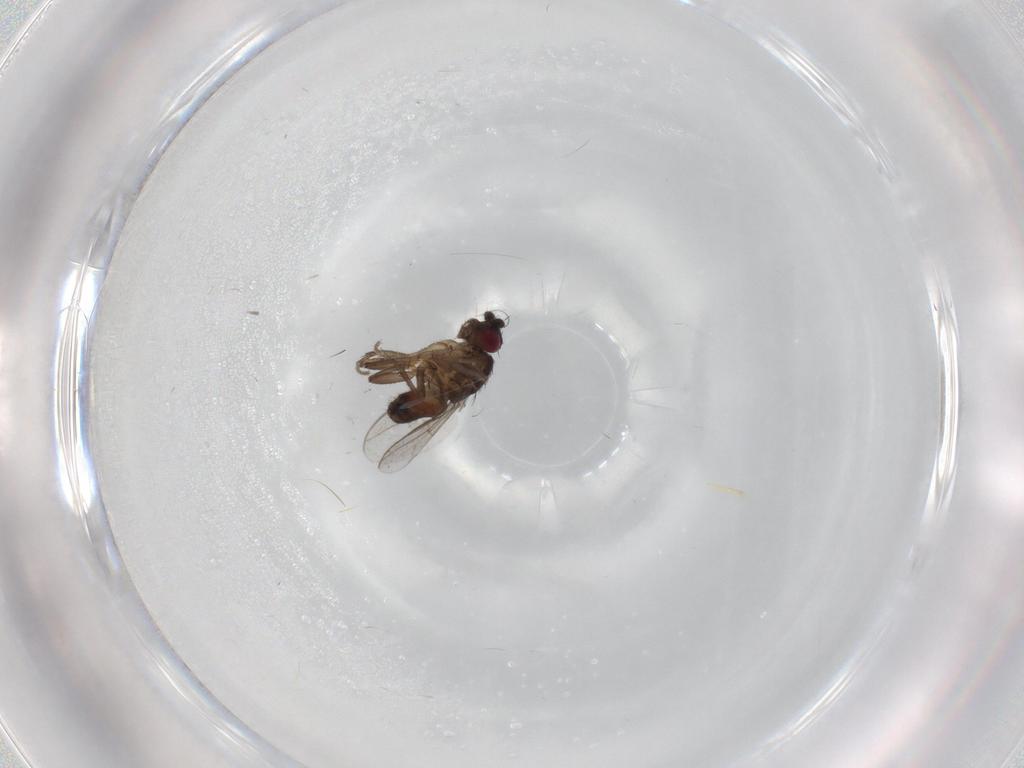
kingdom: Animalia
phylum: Arthropoda
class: Insecta
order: Diptera
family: Sphaeroceridae
